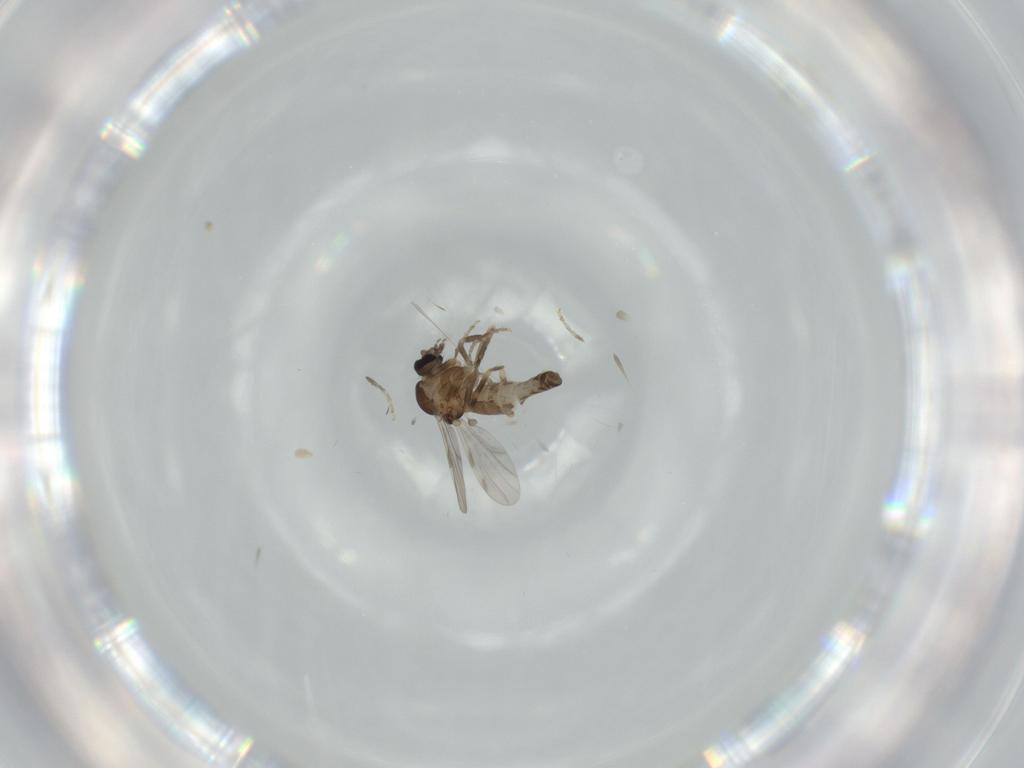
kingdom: Animalia
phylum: Arthropoda
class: Insecta
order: Diptera
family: Ceratopogonidae
